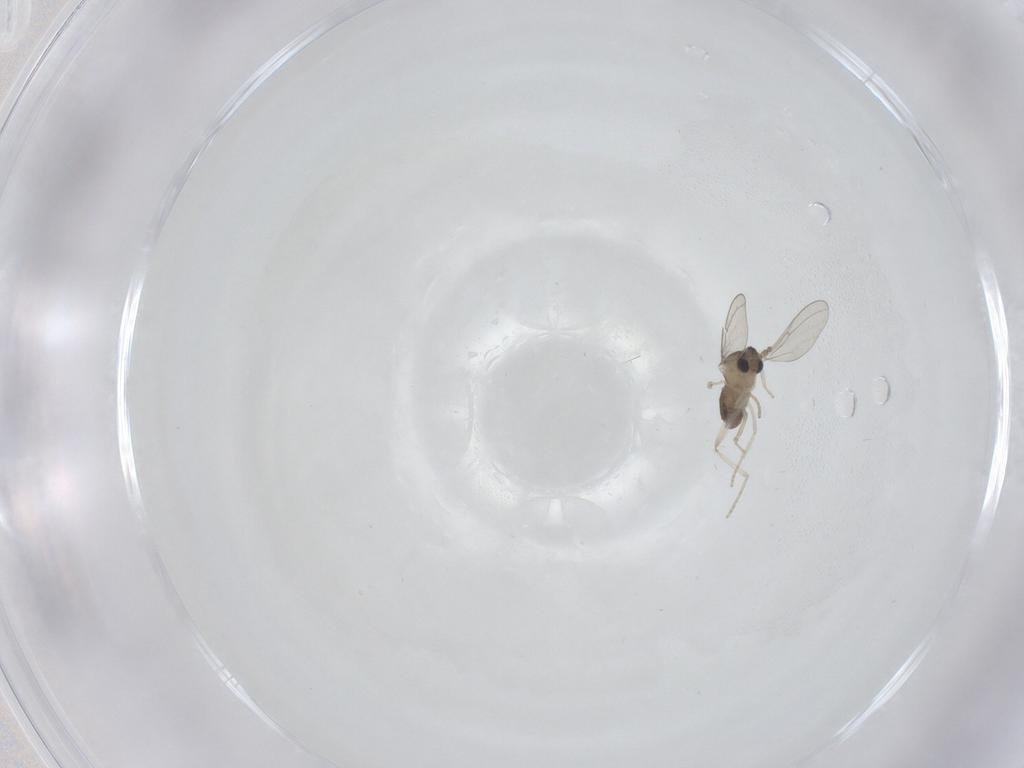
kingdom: Animalia
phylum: Arthropoda
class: Insecta
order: Diptera
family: Cecidomyiidae
